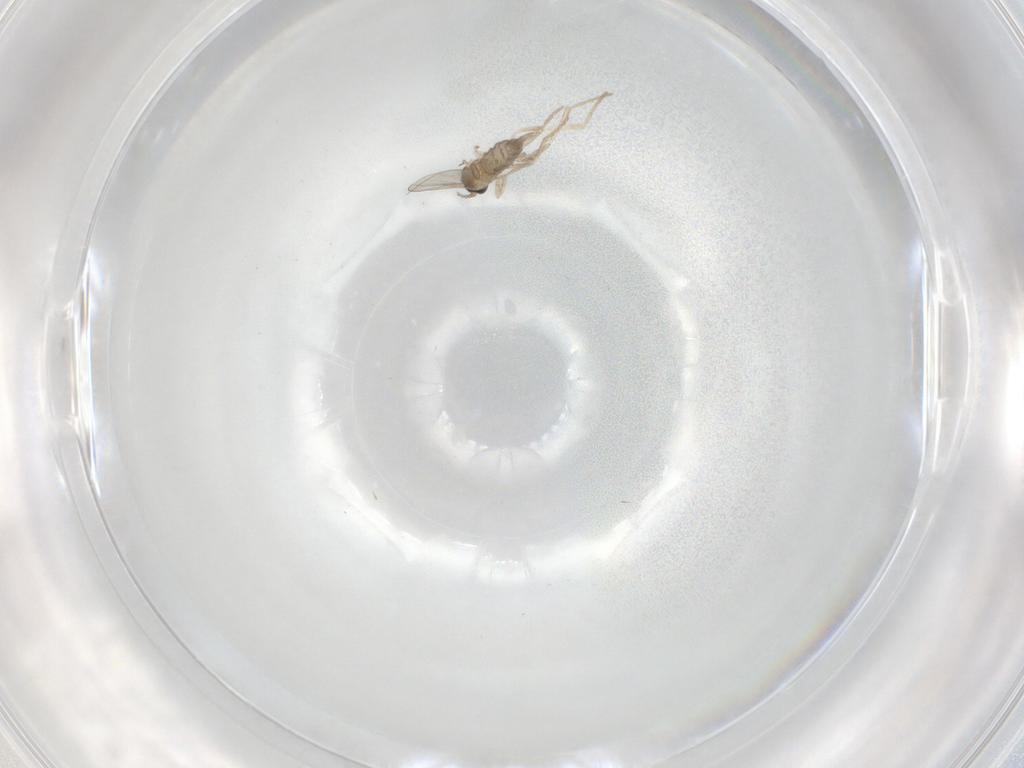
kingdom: Animalia
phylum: Arthropoda
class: Insecta
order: Diptera
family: Cecidomyiidae
